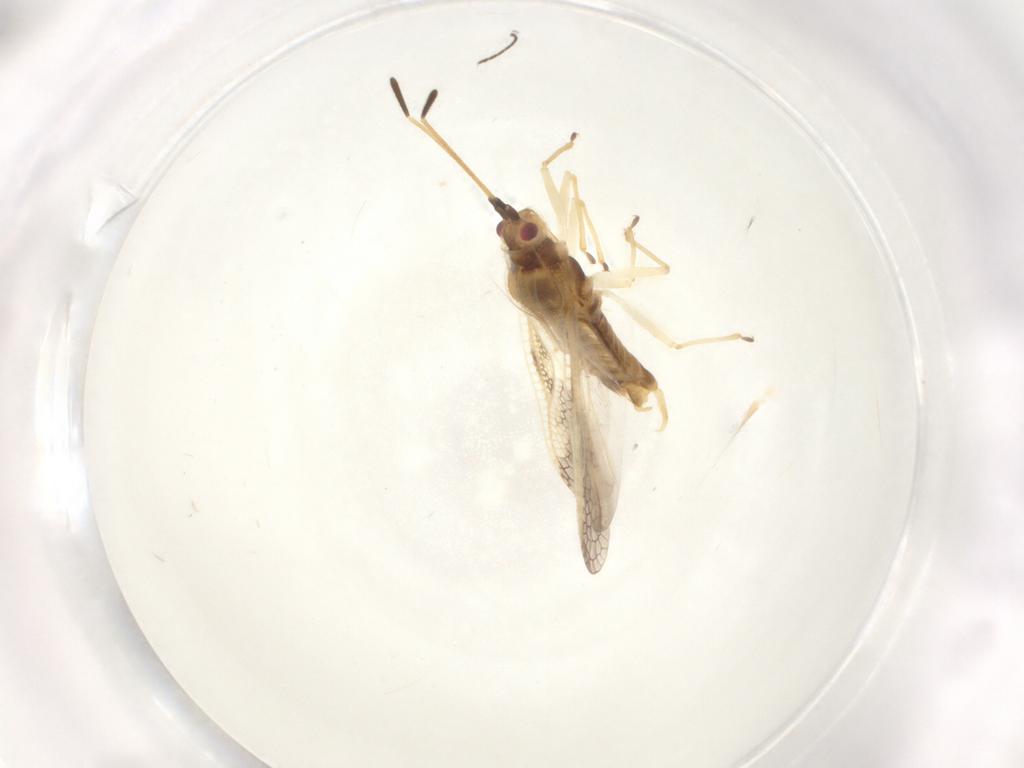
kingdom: Animalia
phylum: Arthropoda
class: Insecta
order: Hemiptera
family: Tingidae
